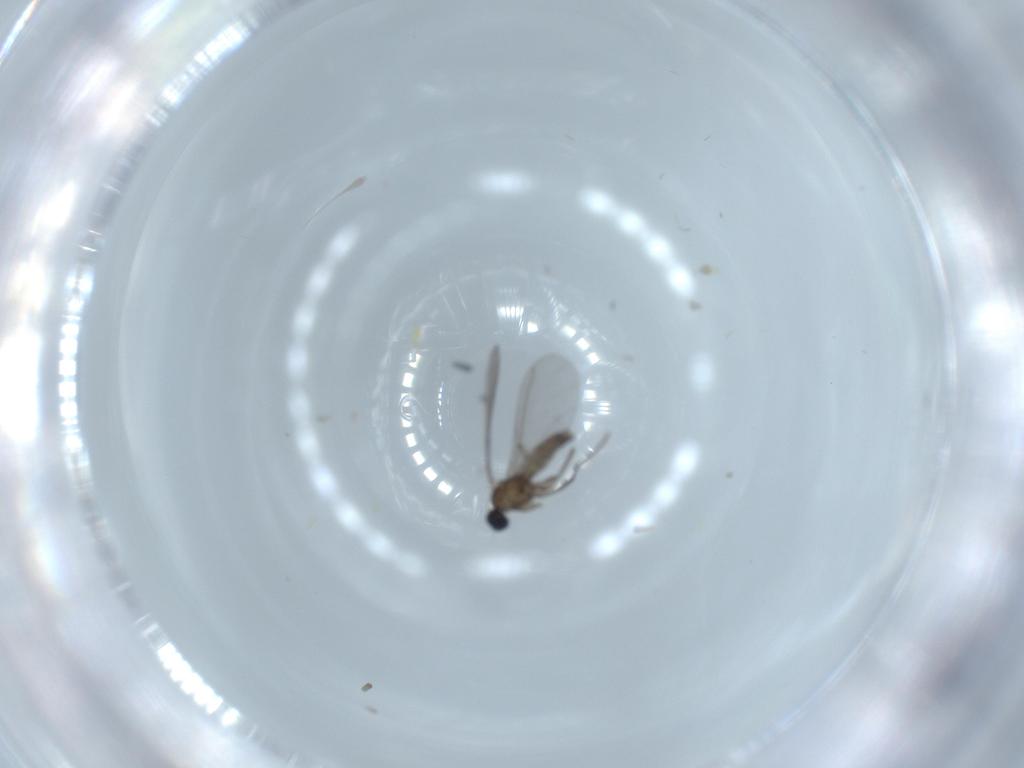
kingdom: Animalia
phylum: Arthropoda
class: Insecta
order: Diptera
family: Sciaridae
